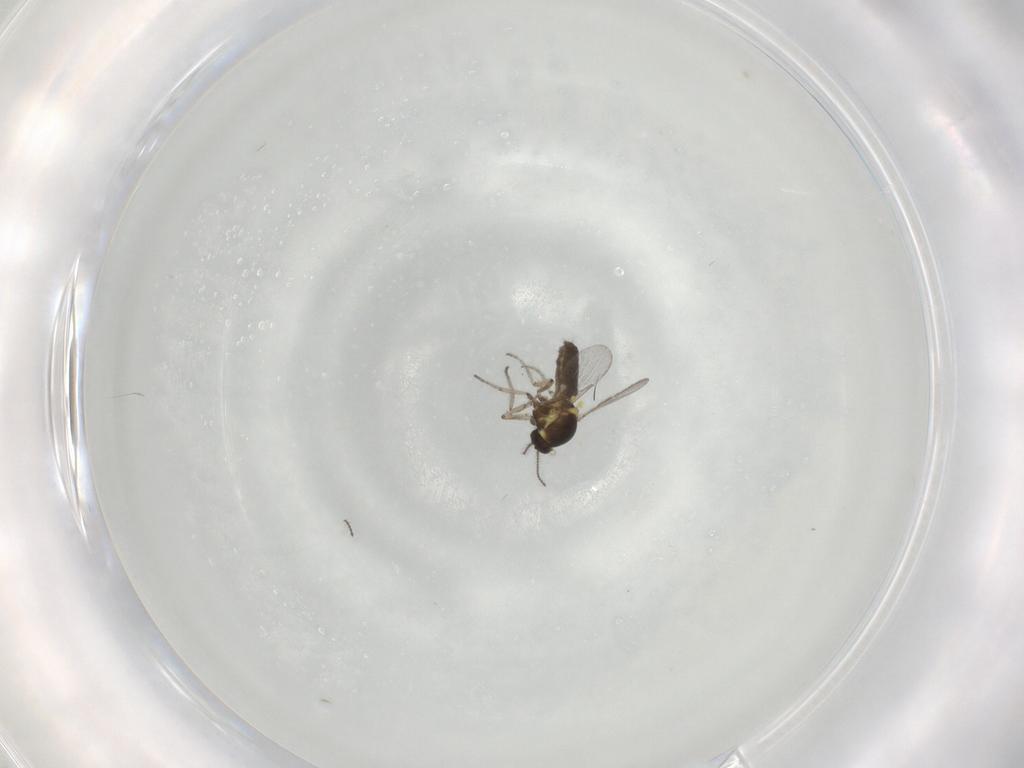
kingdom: Animalia
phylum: Arthropoda
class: Insecta
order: Diptera
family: Ceratopogonidae
